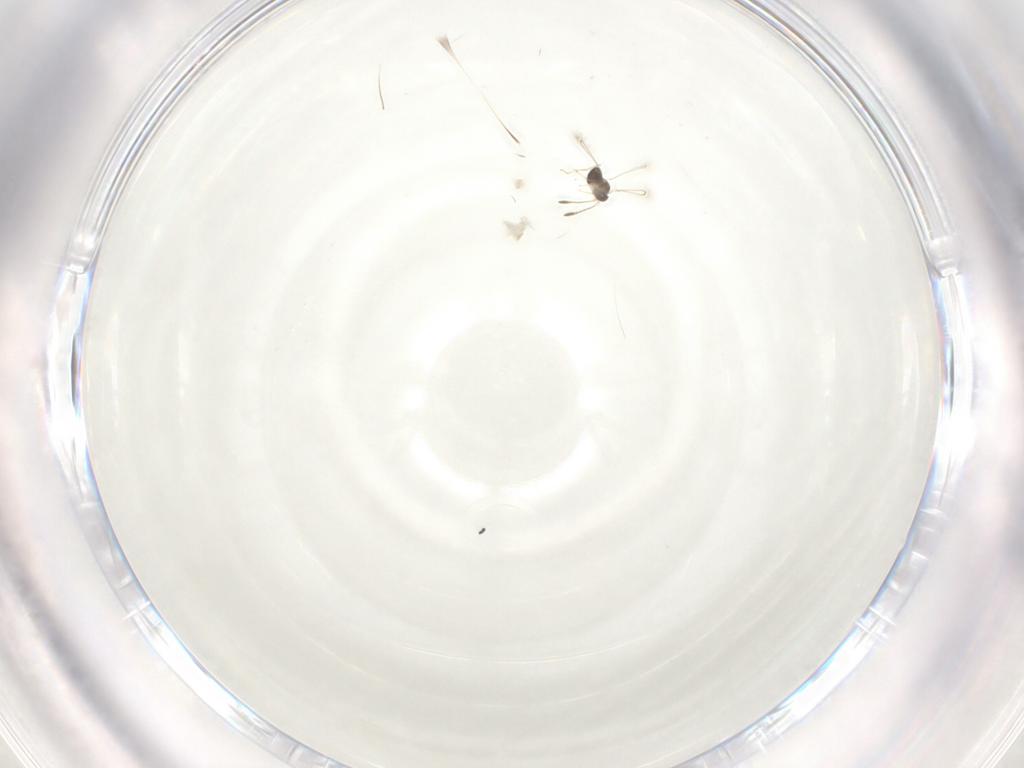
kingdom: Animalia
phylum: Arthropoda
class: Insecta
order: Diptera
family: Cecidomyiidae
